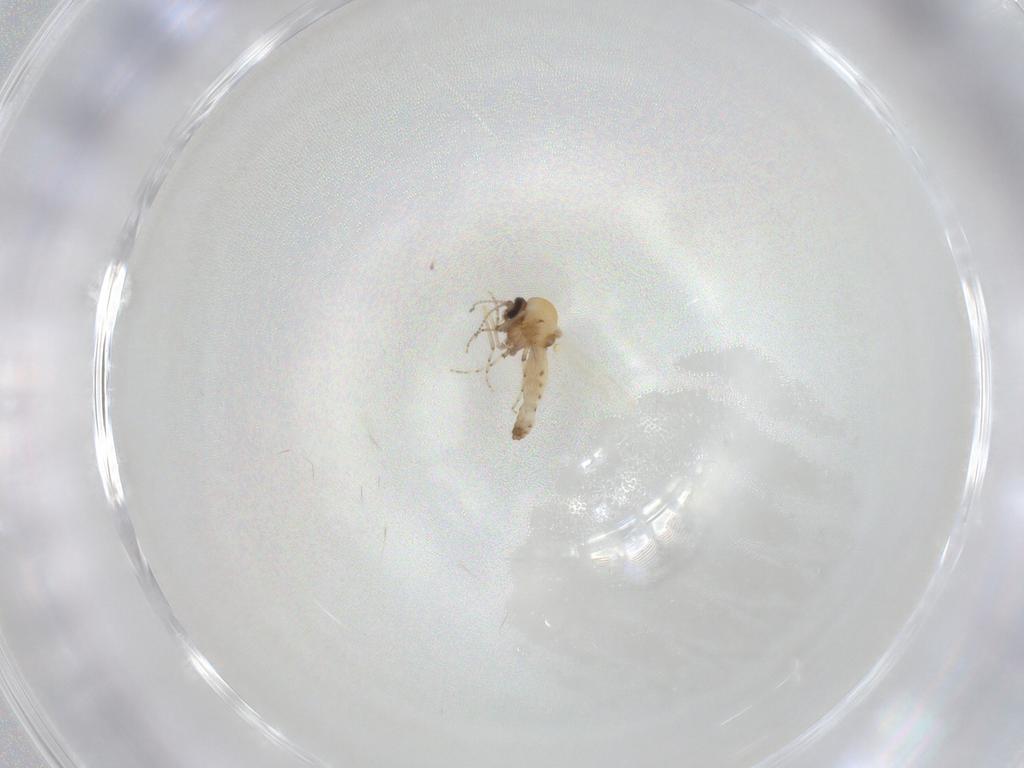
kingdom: Animalia
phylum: Arthropoda
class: Insecta
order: Diptera
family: Ceratopogonidae
